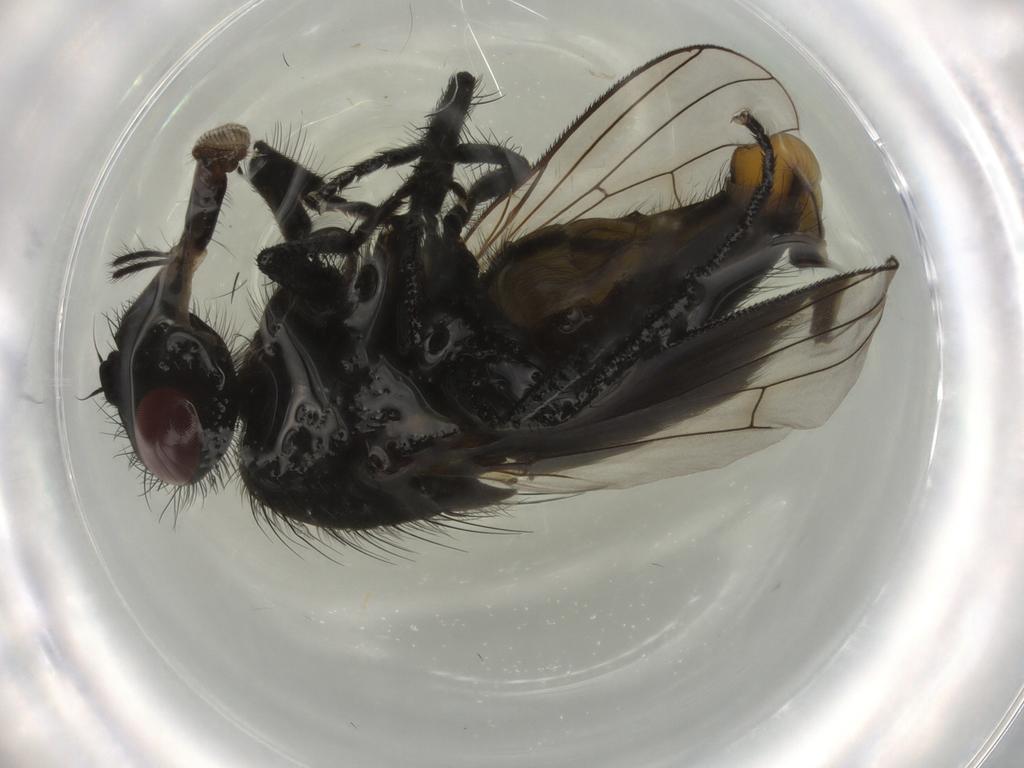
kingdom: Animalia
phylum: Arthropoda
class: Insecta
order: Diptera
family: Muscidae
